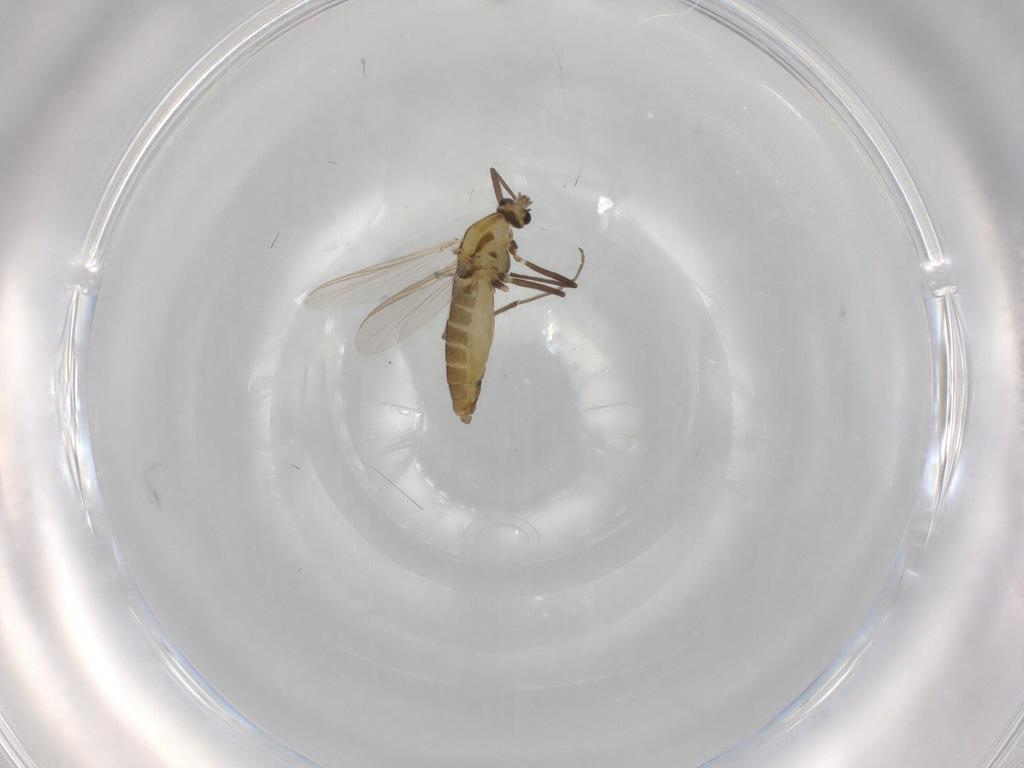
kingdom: Animalia
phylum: Arthropoda
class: Insecta
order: Diptera
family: Chironomidae
